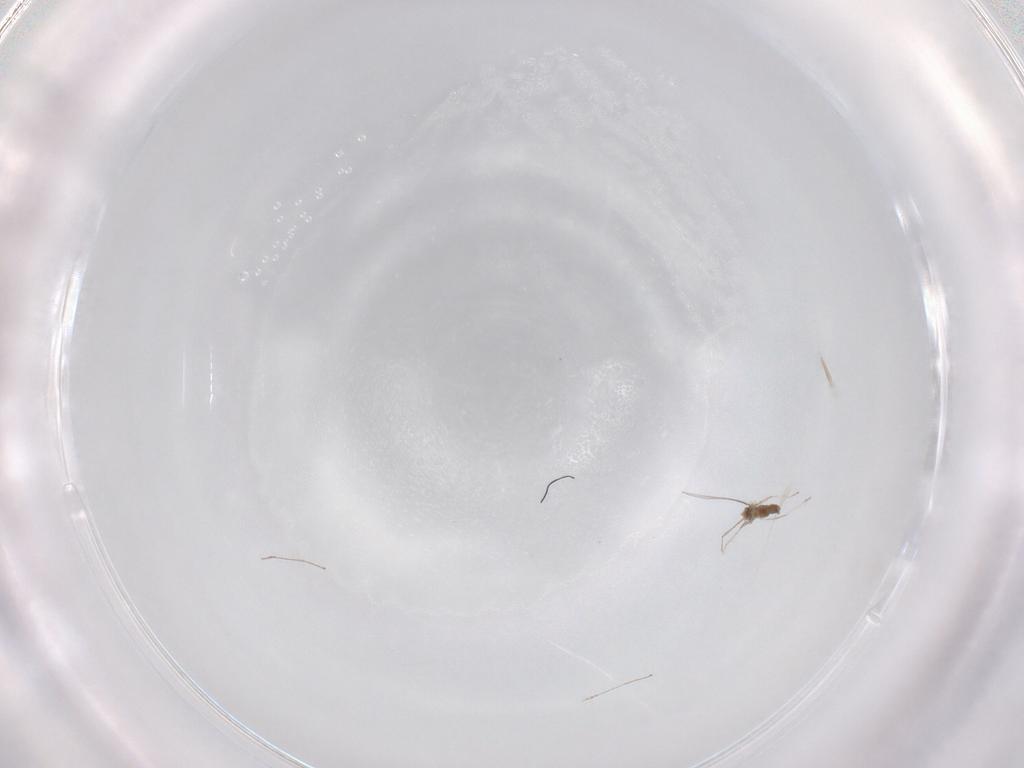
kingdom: Animalia
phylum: Arthropoda
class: Insecta
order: Diptera
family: Cecidomyiidae
